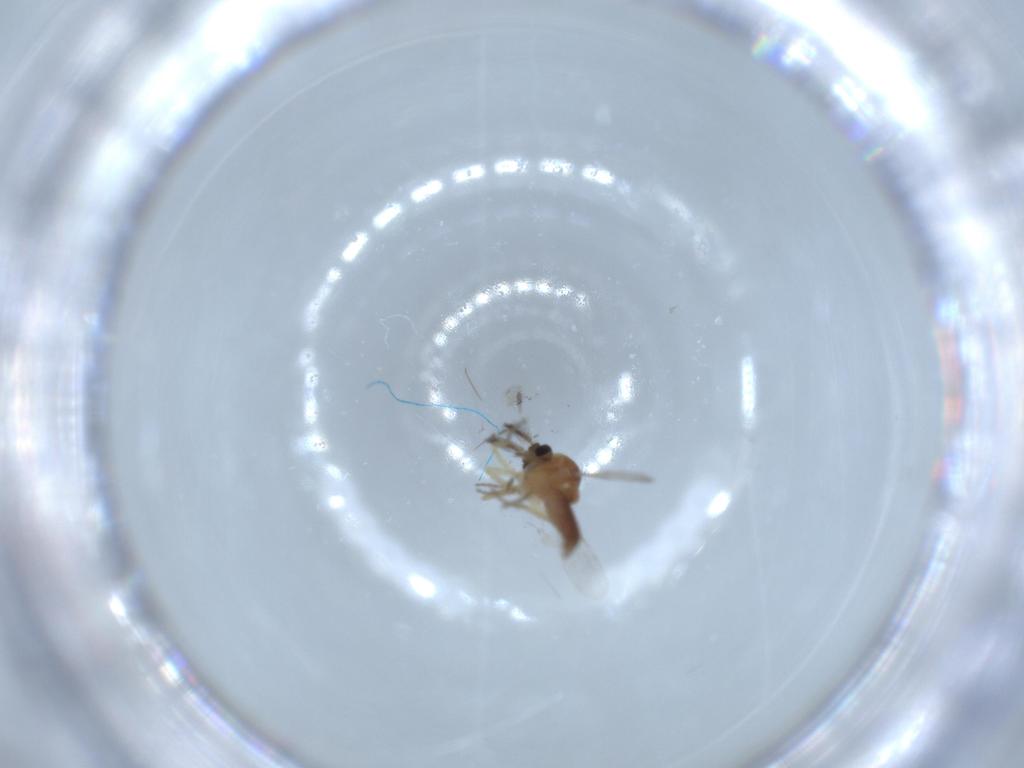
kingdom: Animalia
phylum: Arthropoda
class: Insecta
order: Diptera
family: Ceratopogonidae
